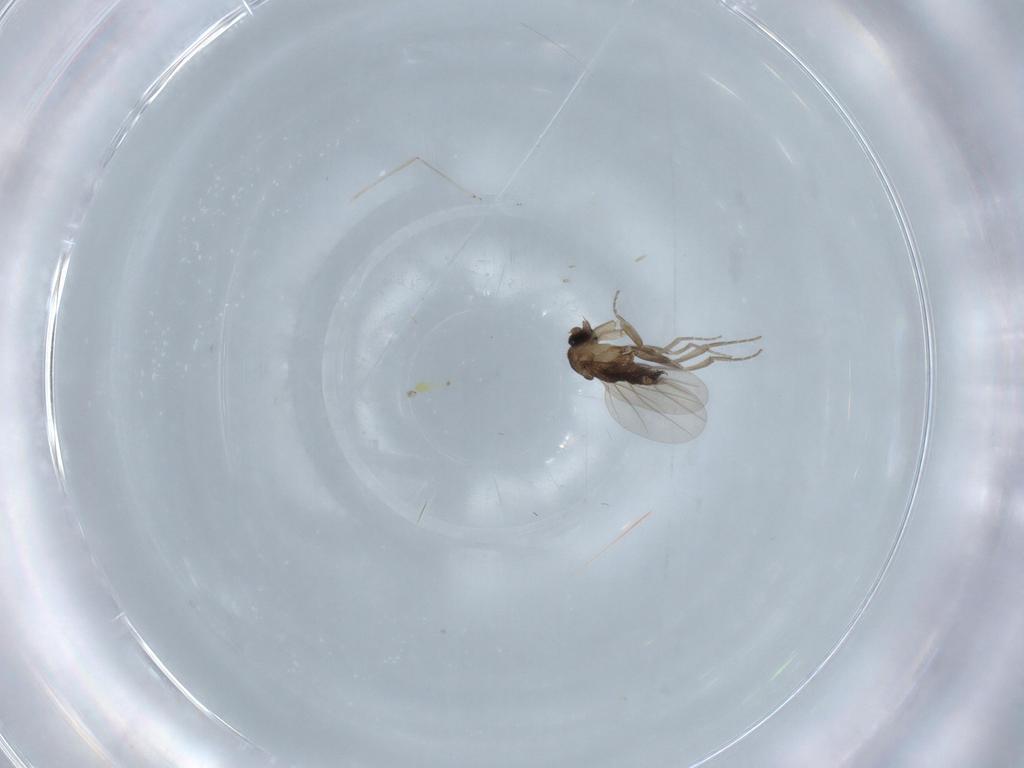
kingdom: Animalia
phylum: Arthropoda
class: Insecta
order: Diptera
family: Phoridae
